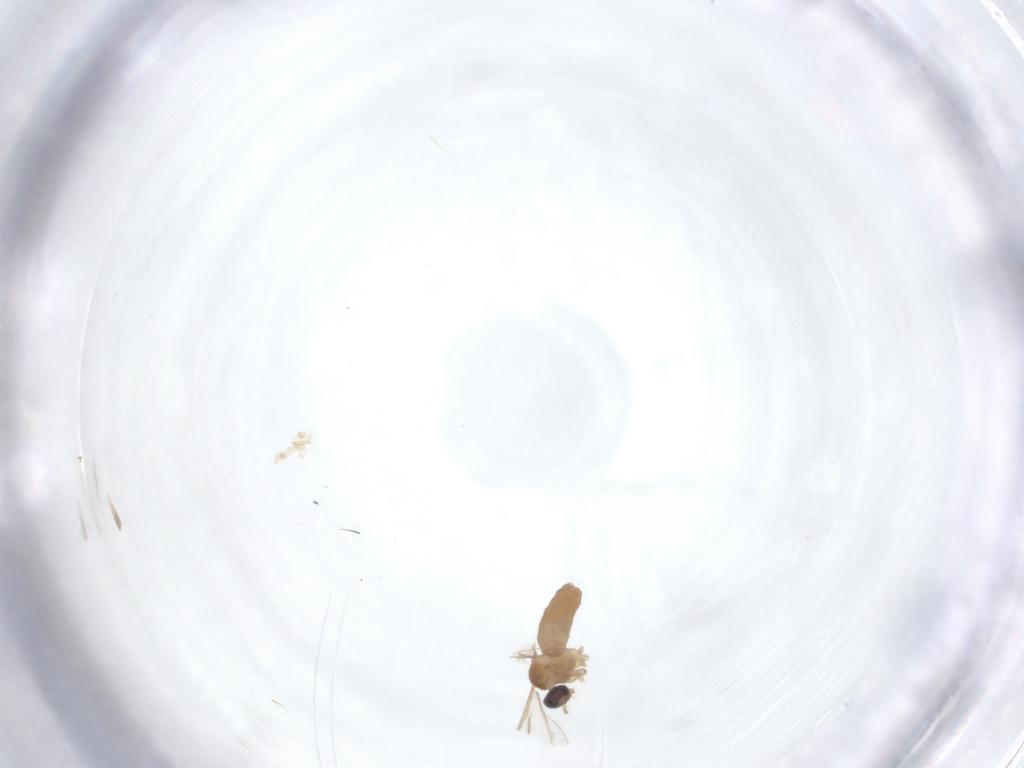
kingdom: Animalia
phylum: Arthropoda
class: Insecta
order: Diptera
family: Cecidomyiidae
